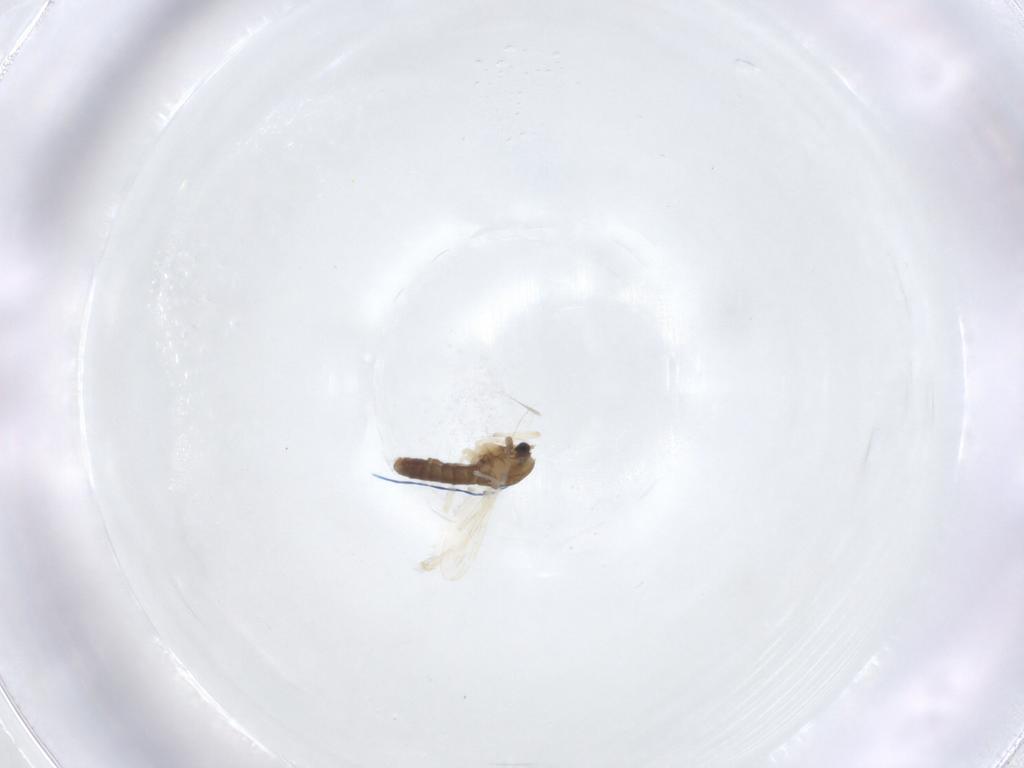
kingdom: Animalia
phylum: Arthropoda
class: Insecta
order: Diptera
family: Chironomidae
